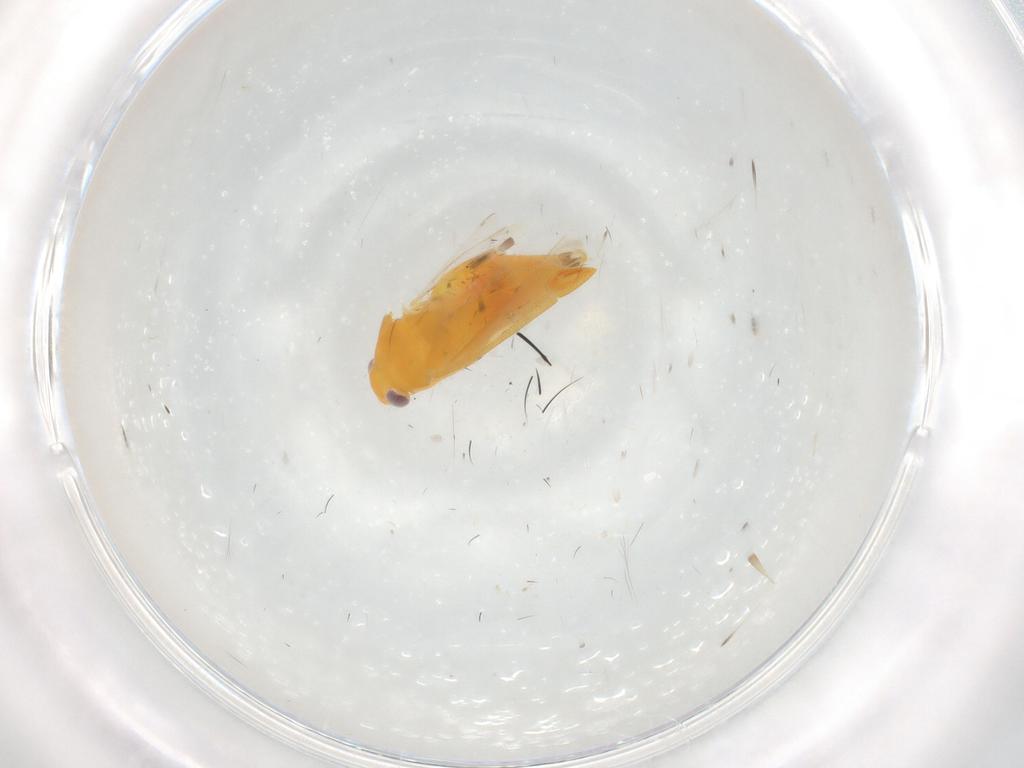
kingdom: Animalia
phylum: Arthropoda
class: Insecta
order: Hemiptera
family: Miridae
